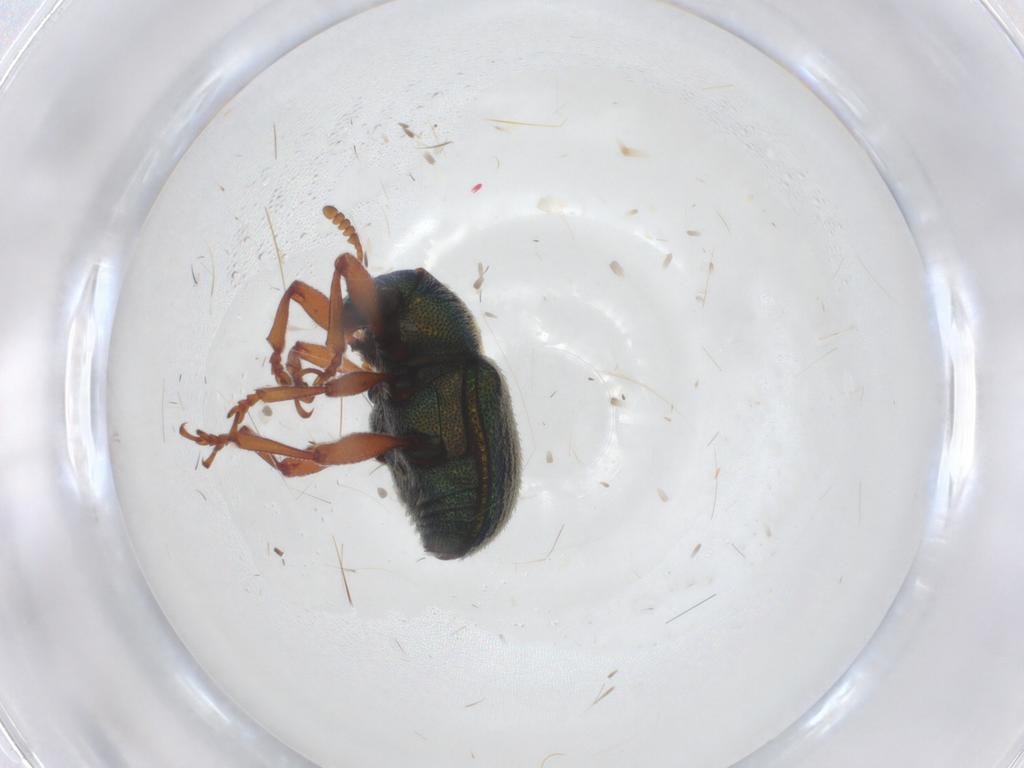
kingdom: Animalia
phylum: Arthropoda
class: Insecta
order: Coleoptera
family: Chrysomelidae
